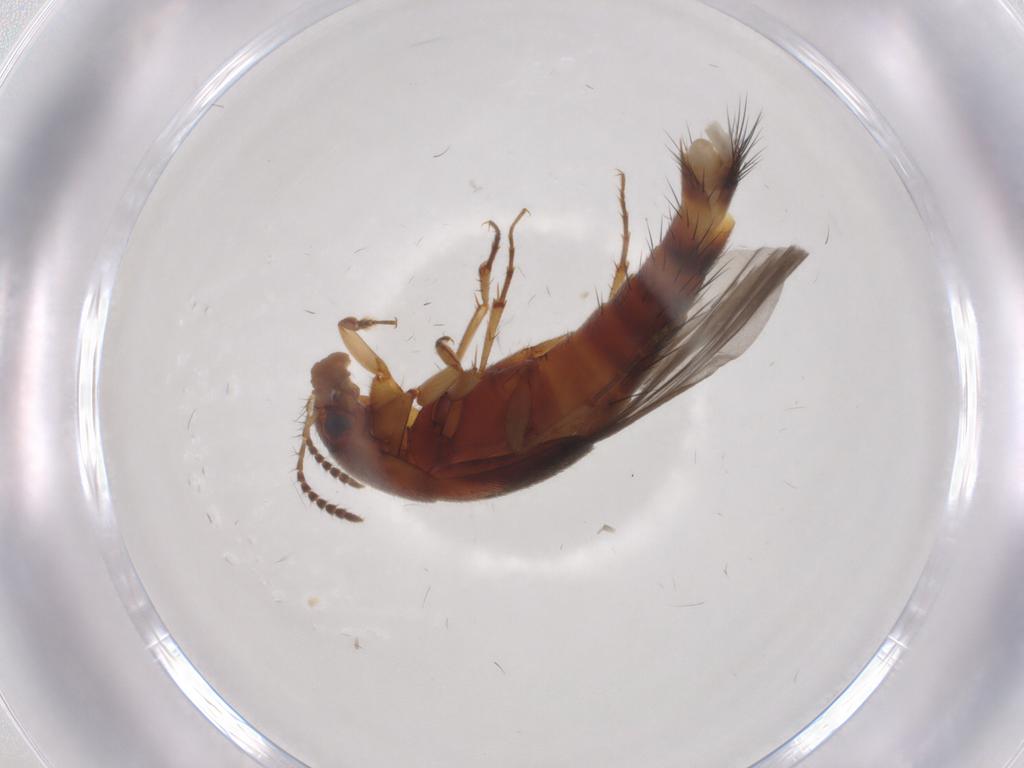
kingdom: Animalia
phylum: Arthropoda
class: Insecta
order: Coleoptera
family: Staphylinidae
